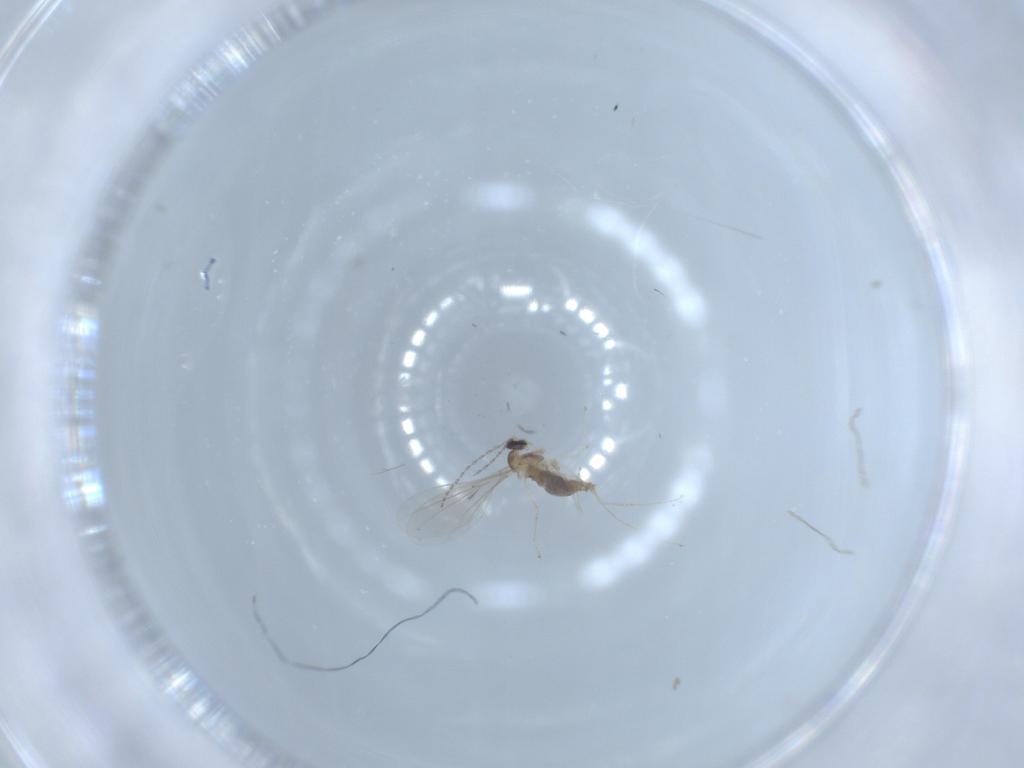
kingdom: Animalia
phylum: Arthropoda
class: Insecta
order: Diptera
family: Cecidomyiidae
